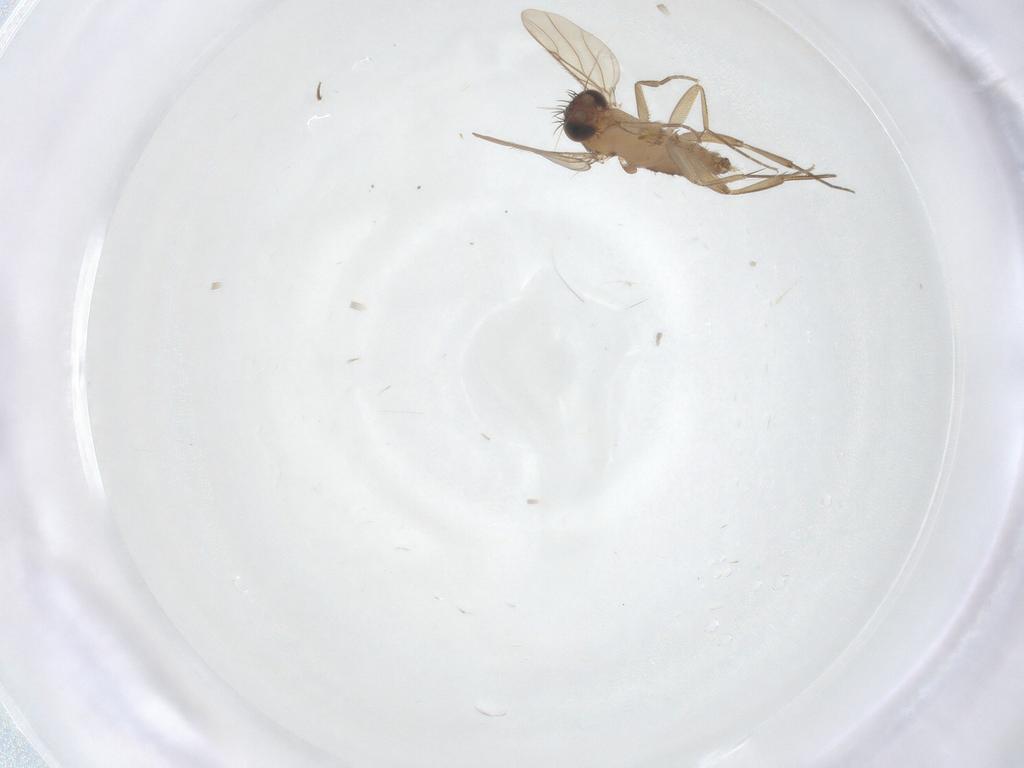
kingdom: Animalia
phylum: Arthropoda
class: Insecta
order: Diptera
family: Phoridae
